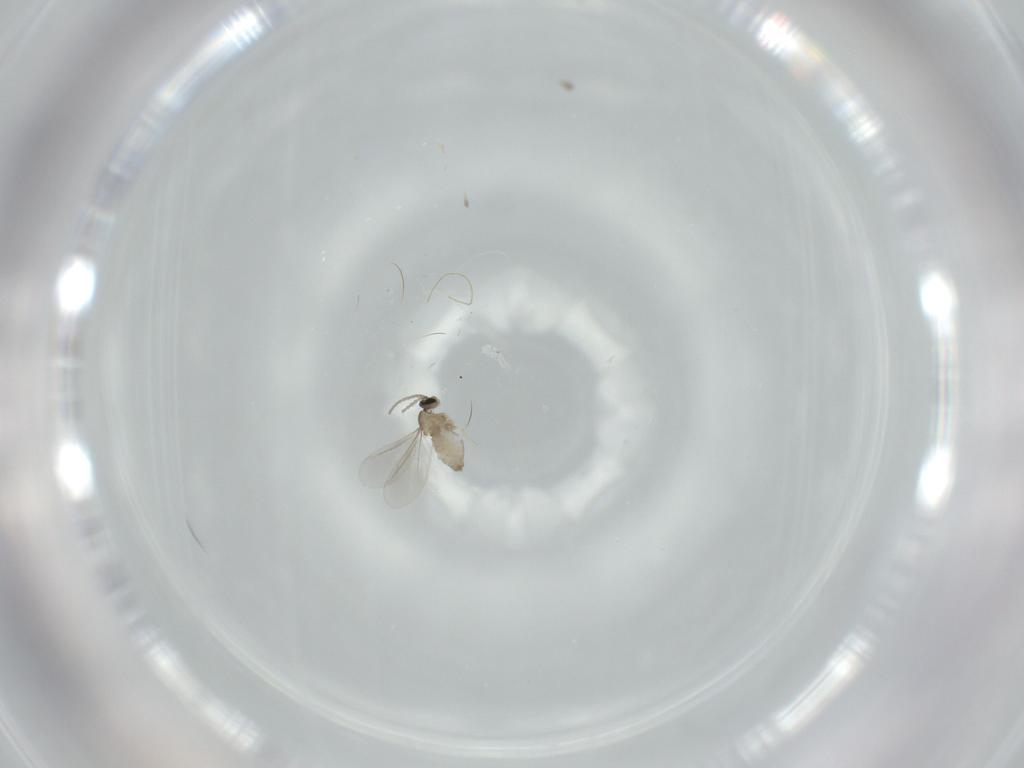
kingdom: Animalia
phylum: Arthropoda
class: Insecta
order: Diptera
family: Cecidomyiidae
